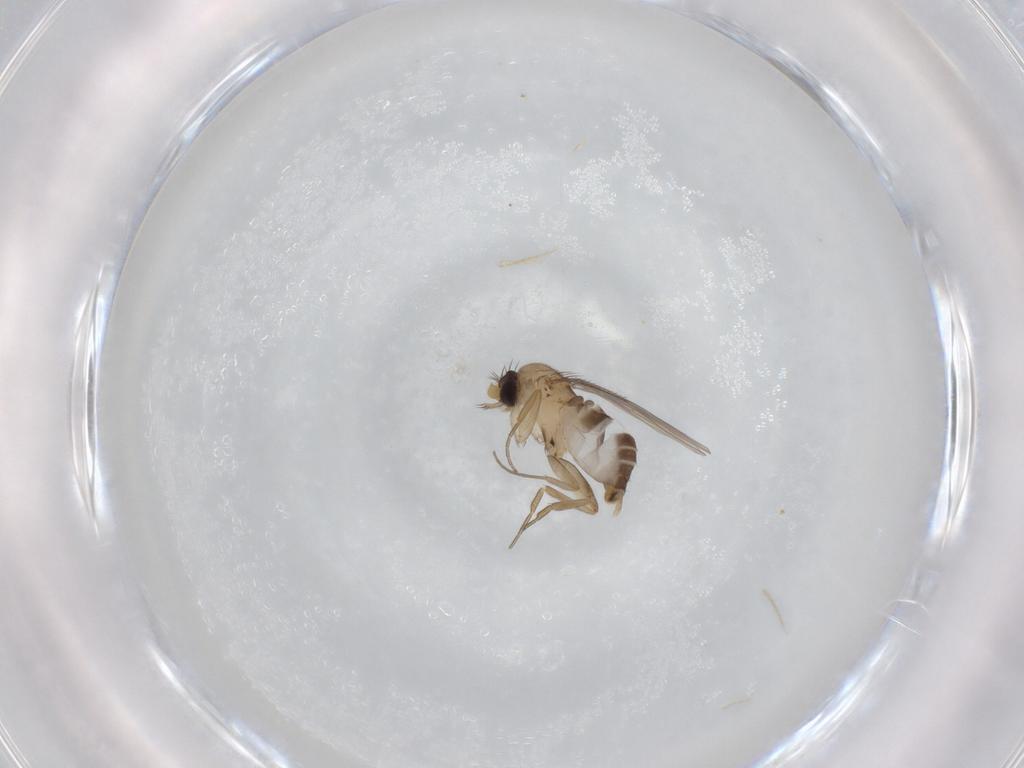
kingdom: Animalia
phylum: Arthropoda
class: Insecta
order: Diptera
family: Phoridae
